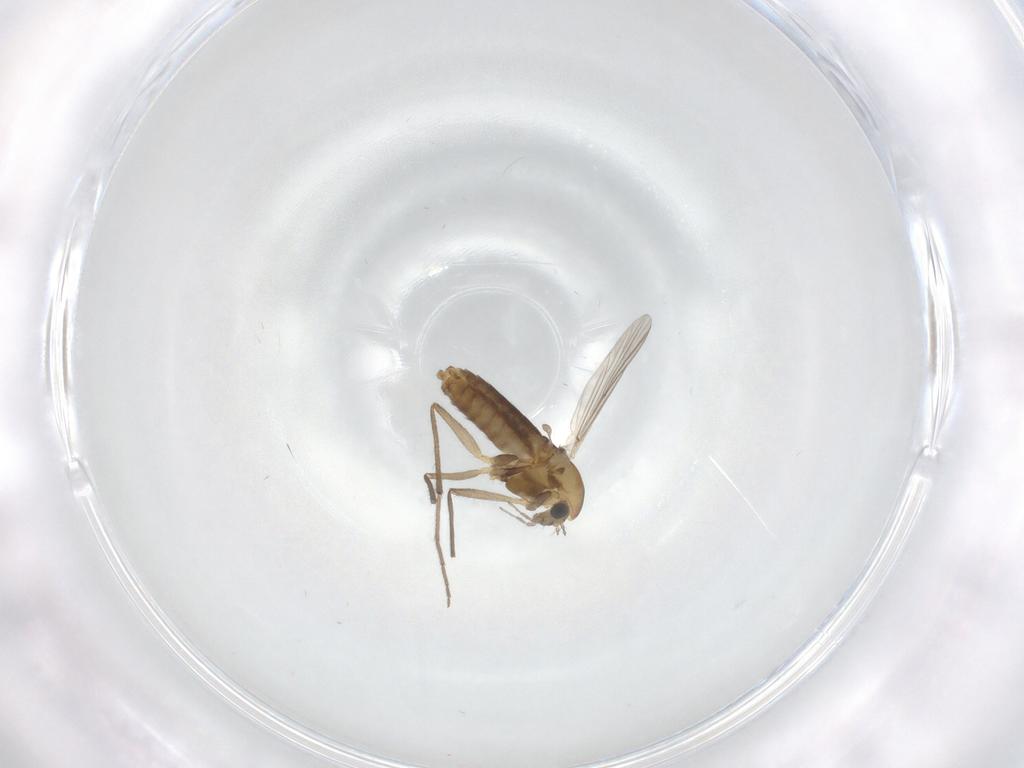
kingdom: Animalia
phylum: Arthropoda
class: Insecta
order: Diptera
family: Chironomidae
